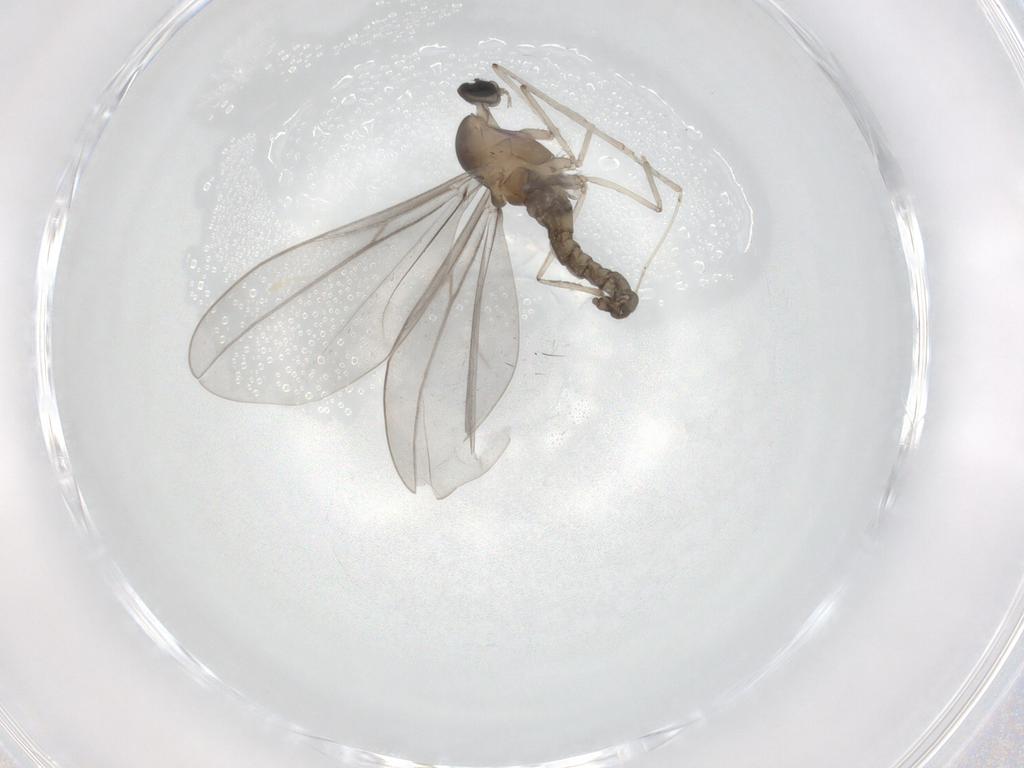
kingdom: Animalia
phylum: Arthropoda
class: Insecta
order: Diptera
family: Cecidomyiidae
